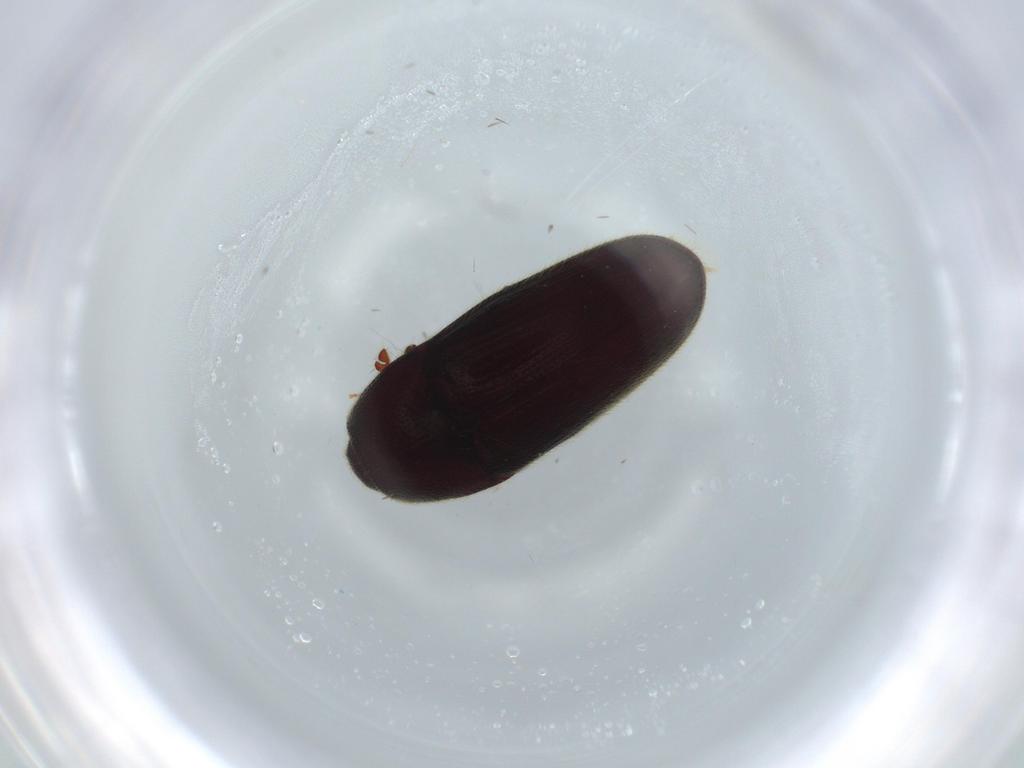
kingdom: Animalia
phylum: Arthropoda
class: Insecta
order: Coleoptera
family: Throscidae
